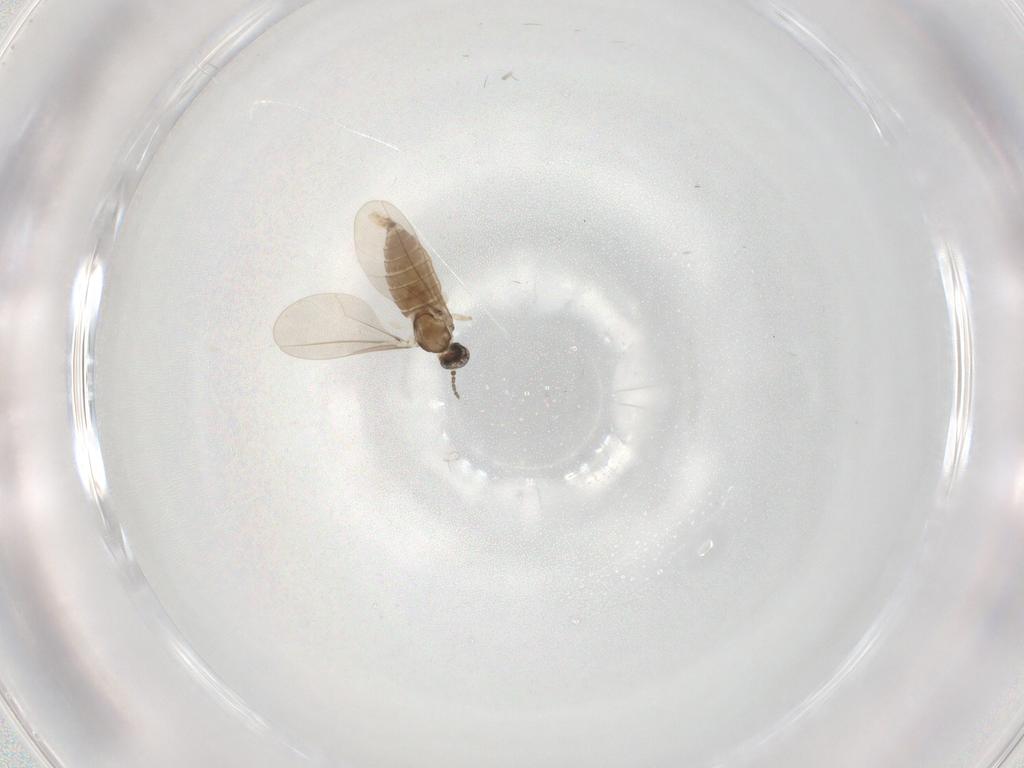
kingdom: Animalia
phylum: Arthropoda
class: Insecta
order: Diptera
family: Cecidomyiidae
